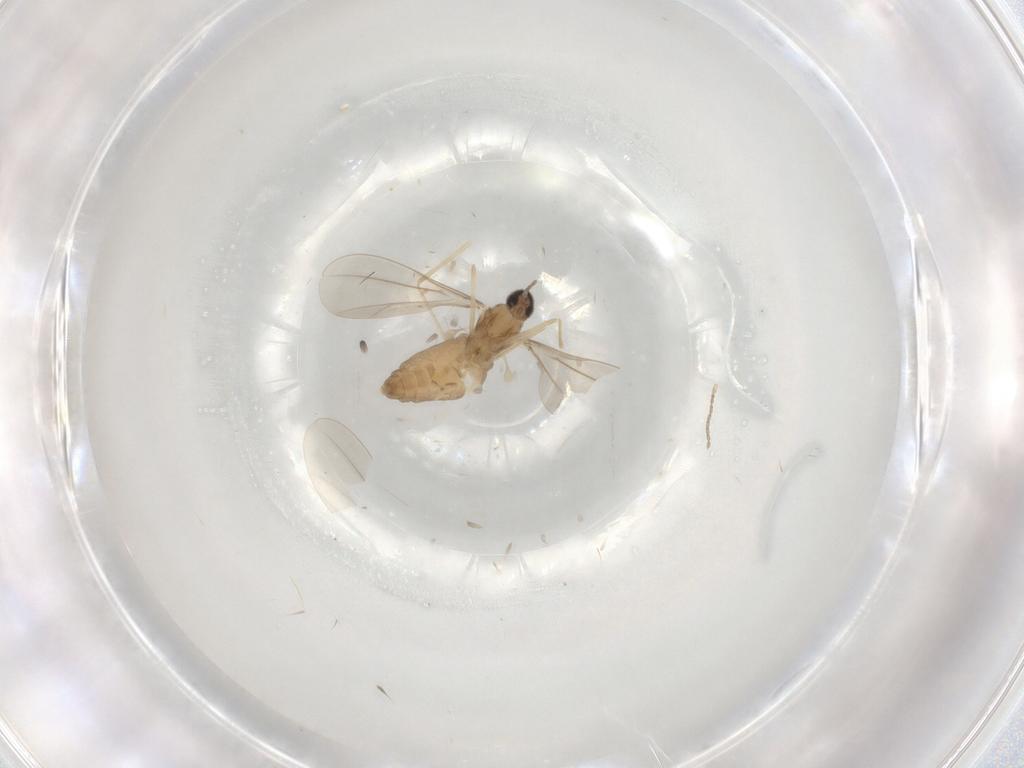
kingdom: Animalia
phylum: Arthropoda
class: Insecta
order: Diptera
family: Cecidomyiidae
